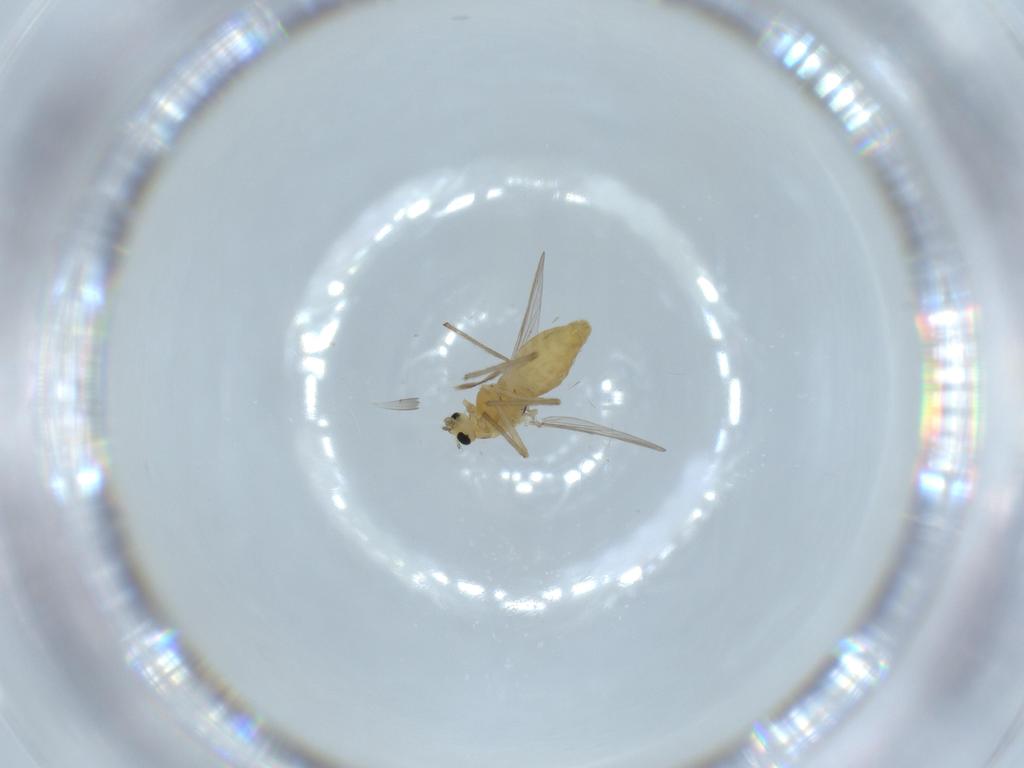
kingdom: Animalia
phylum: Arthropoda
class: Insecta
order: Diptera
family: Chironomidae
